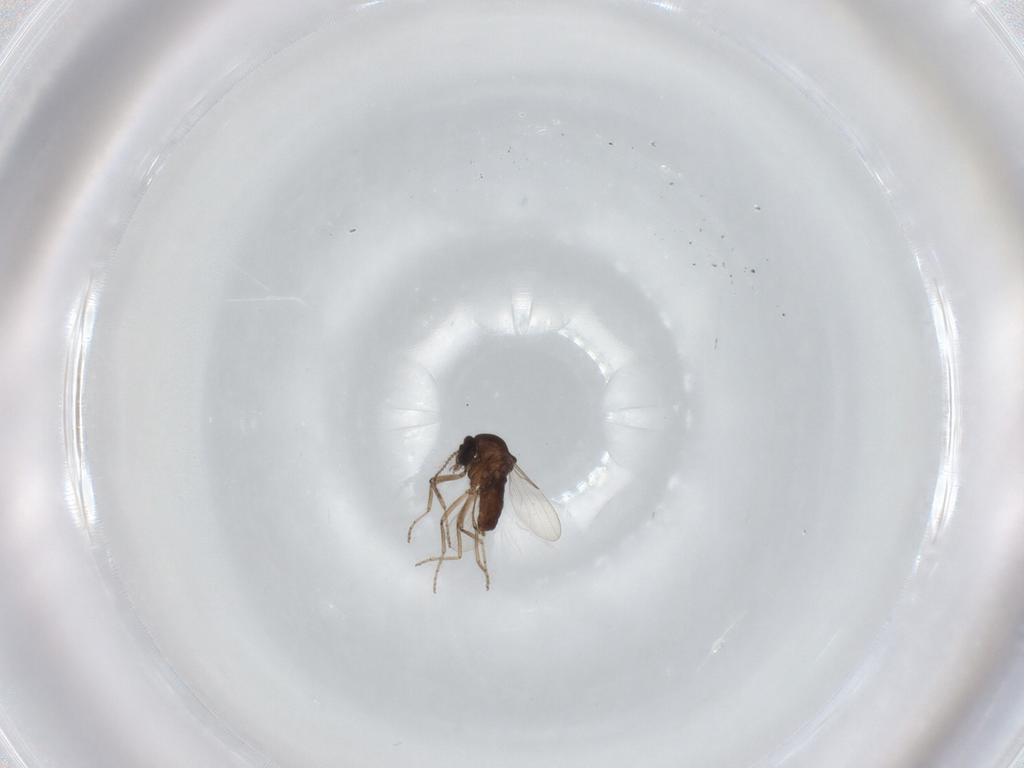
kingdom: Animalia
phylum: Arthropoda
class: Insecta
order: Diptera
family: Ceratopogonidae
